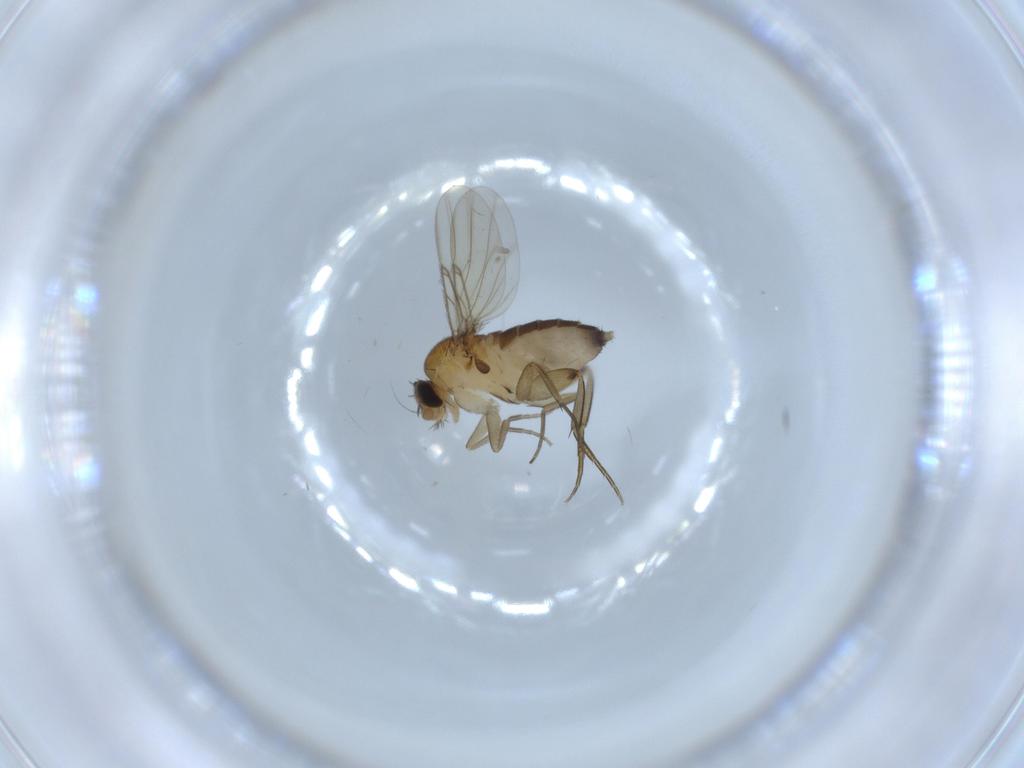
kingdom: Animalia
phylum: Arthropoda
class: Insecta
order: Diptera
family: Phoridae
